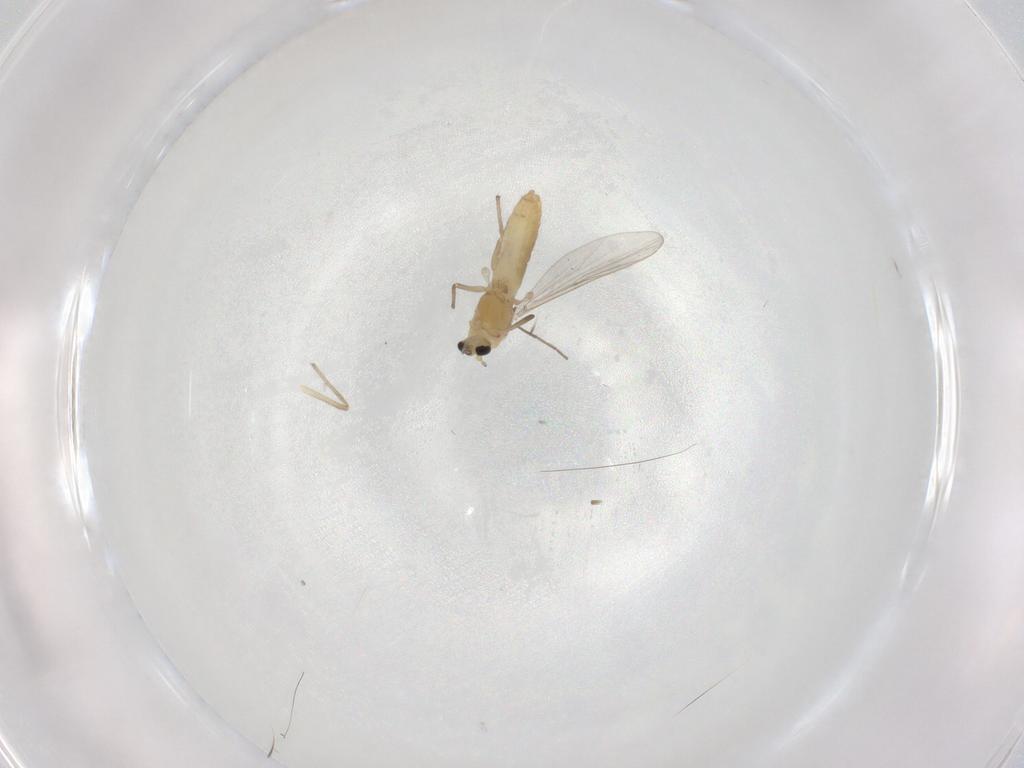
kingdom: Animalia
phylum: Arthropoda
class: Insecta
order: Diptera
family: Chironomidae
